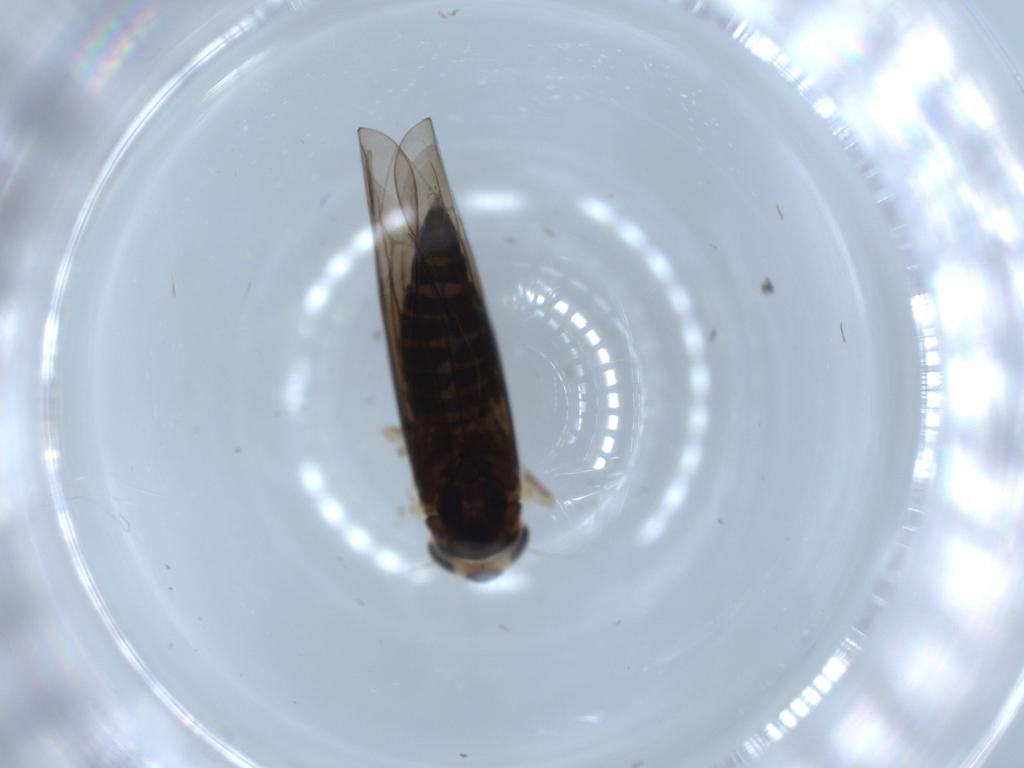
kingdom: Animalia
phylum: Arthropoda
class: Insecta
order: Hemiptera
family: Cicadellidae
